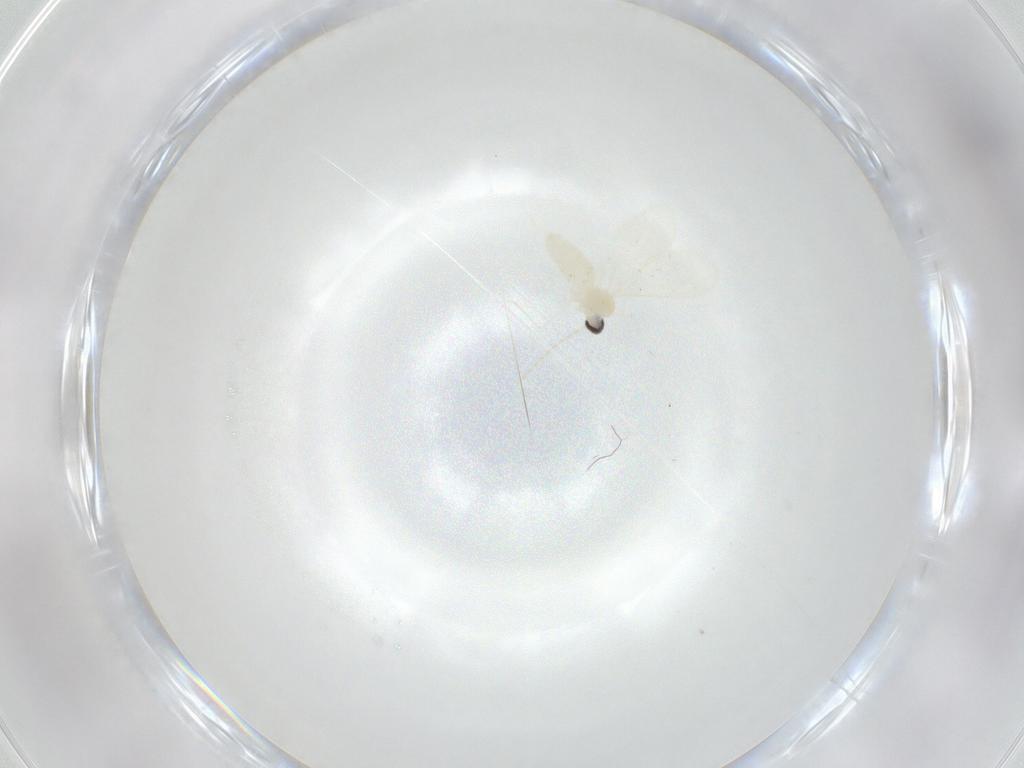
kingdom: Animalia
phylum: Arthropoda
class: Insecta
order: Diptera
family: Cecidomyiidae
